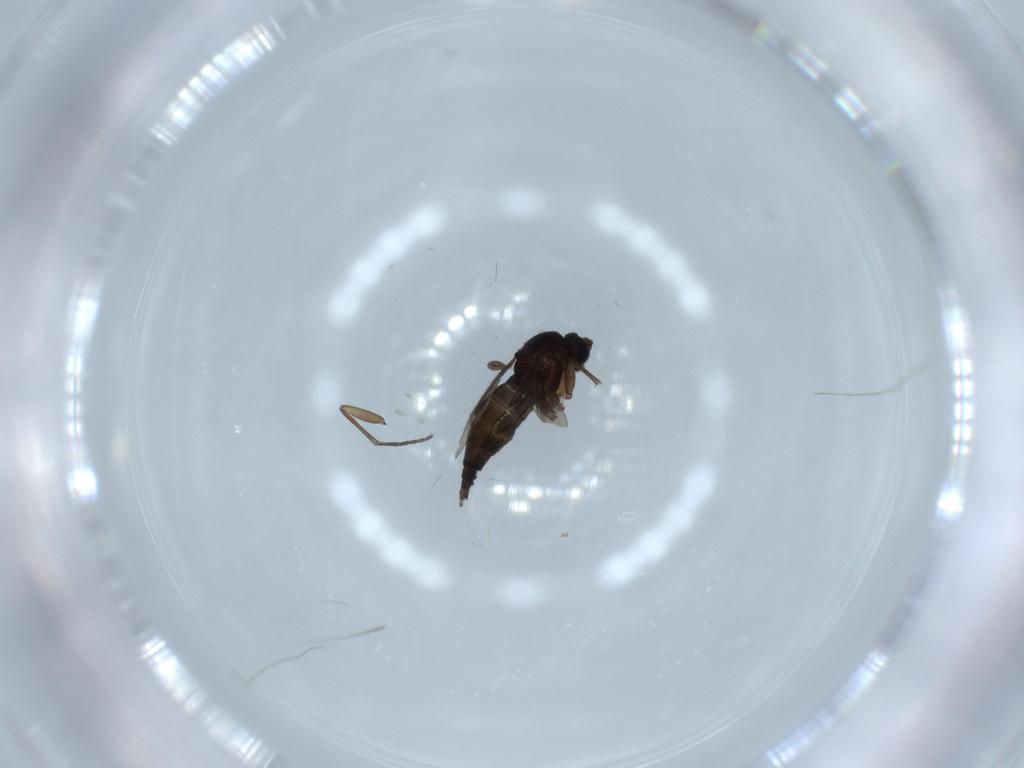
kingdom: Animalia
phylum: Arthropoda
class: Insecta
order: Diptera
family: Sciaridae
